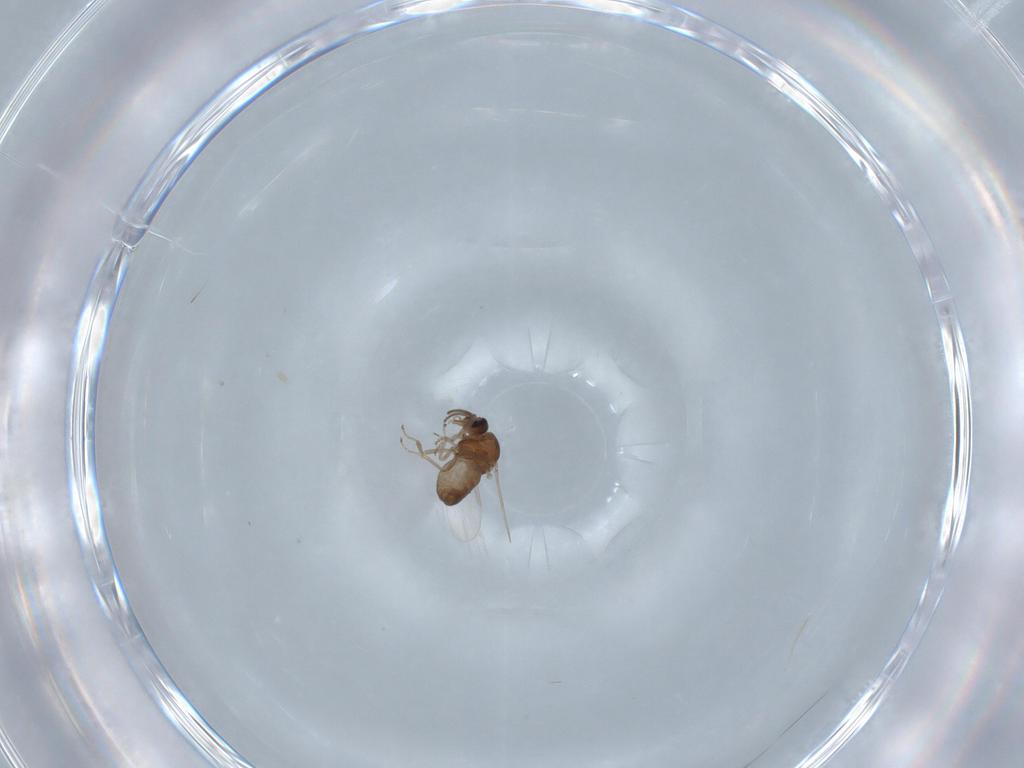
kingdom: Animalia
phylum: Arthropoda
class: Insecta
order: Diptera
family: Ceratopogonidae
